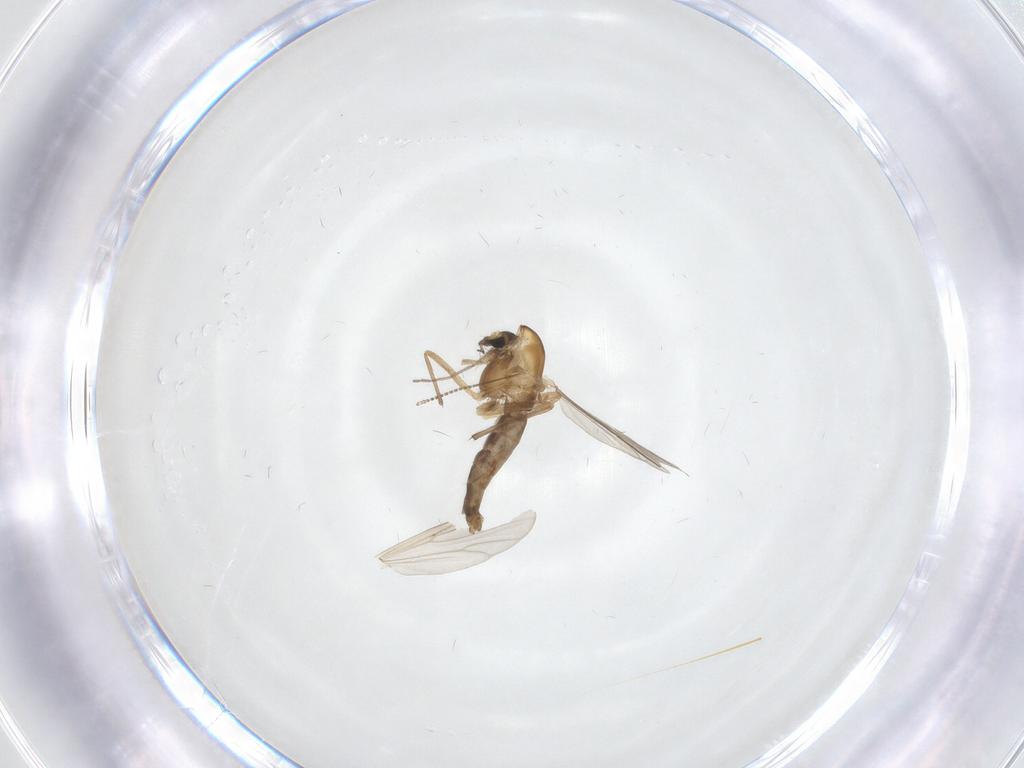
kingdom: Animalia
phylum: Arthropoda
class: Insecta
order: Diptera
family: Chironomidae
